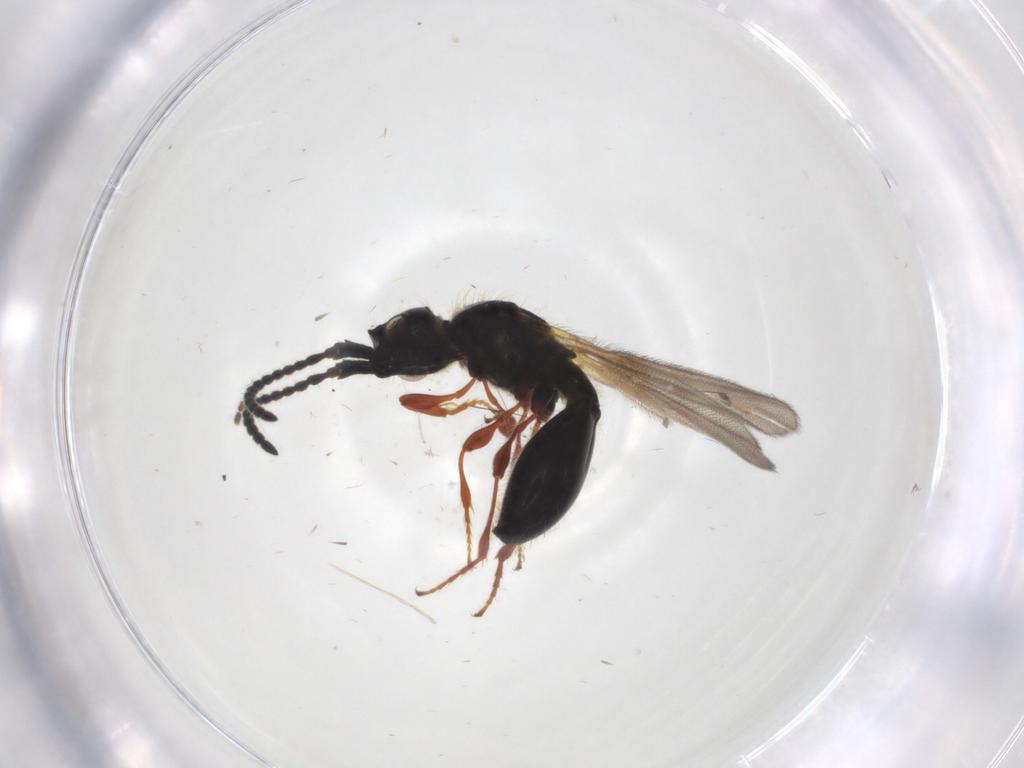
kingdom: Animalia
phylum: Arthropoda
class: Insecta
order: Hymenoptera
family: Diapriidae
